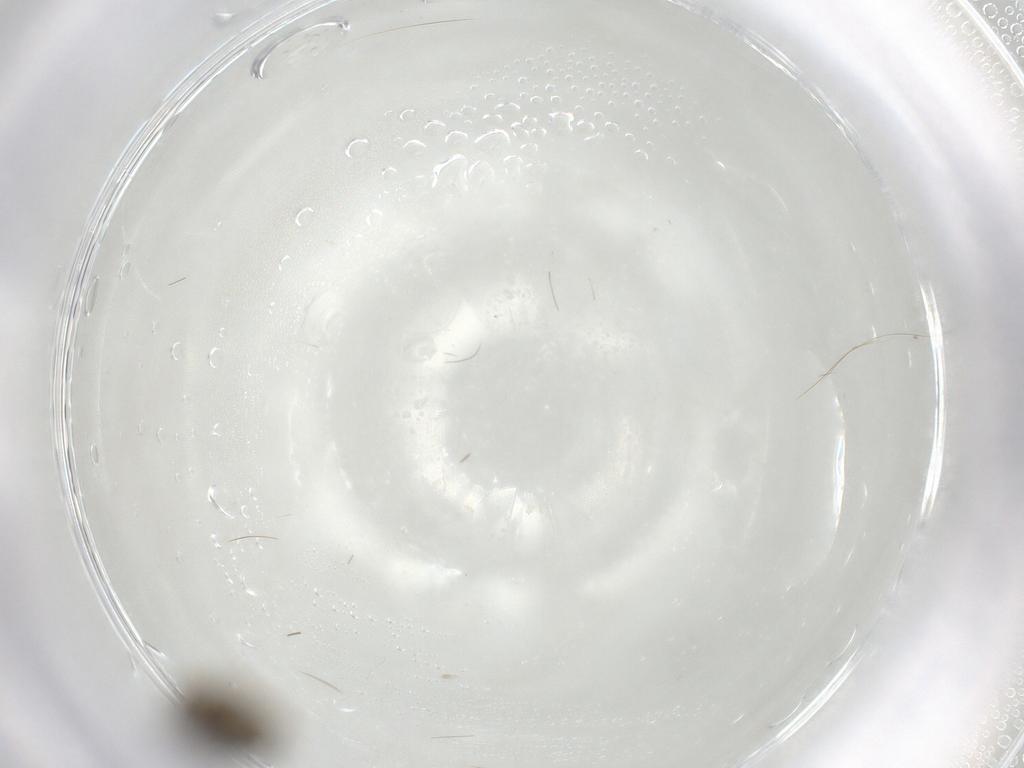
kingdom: Animalia
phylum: Arthropoda
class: Insecta
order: Diptera
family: Chironomidae
